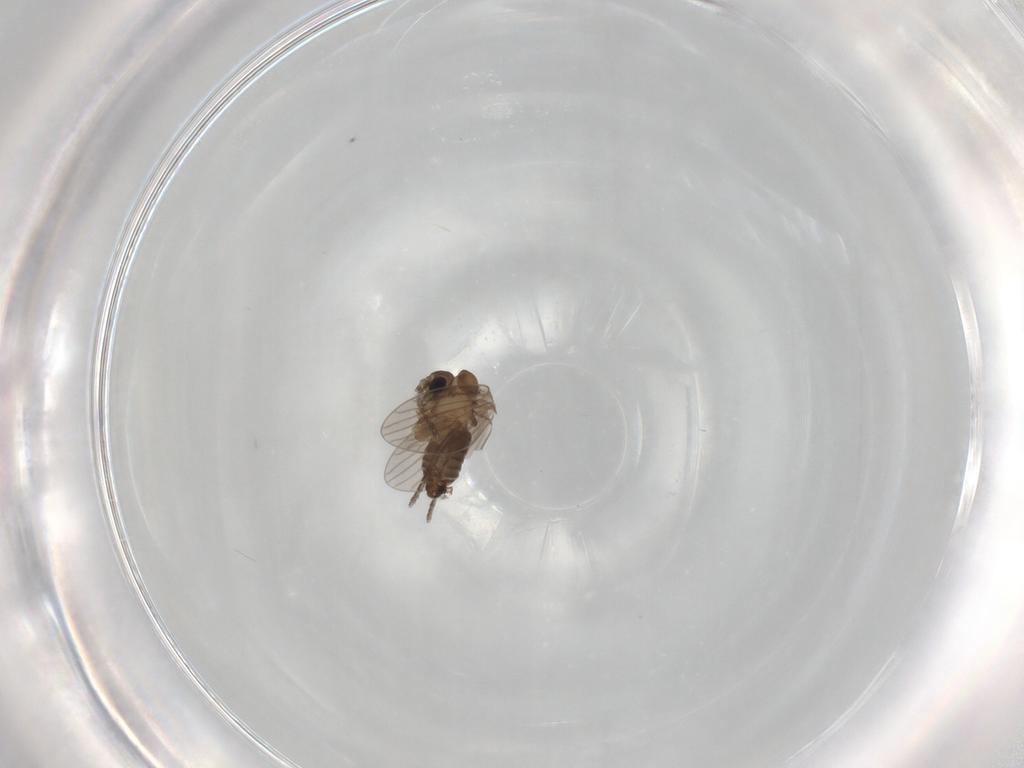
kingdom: Animalia
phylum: Arthropoda
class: Insecta
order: Diptera
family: Sciaridae
